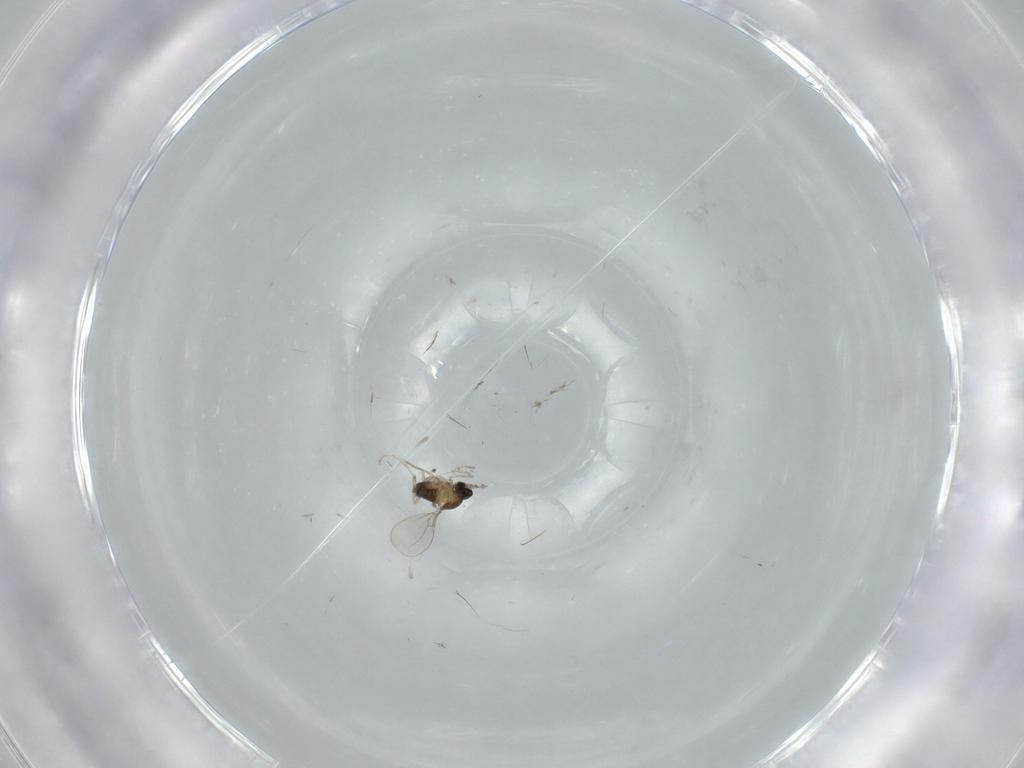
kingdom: Animalia
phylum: Arthropoda
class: Insecta
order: Diptera
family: Cecidomyiidae
